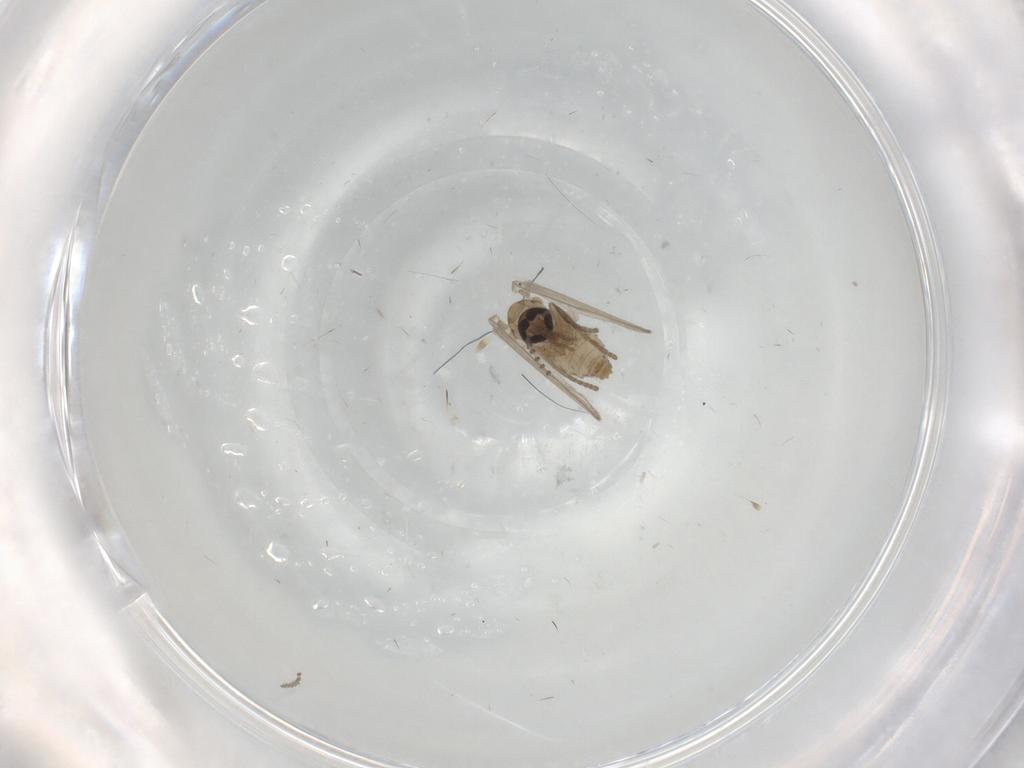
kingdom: Animalia
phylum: Arthropoda
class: Insecta
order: Diptera
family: Psychodidae
